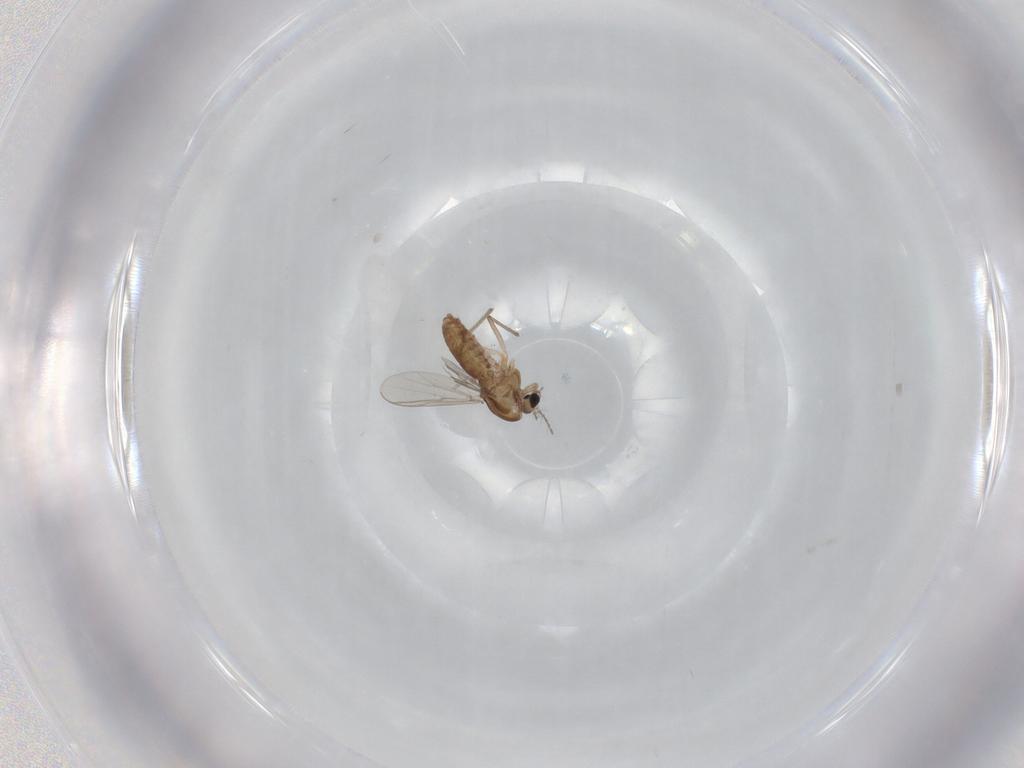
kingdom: Animalia
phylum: Arthropoda
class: Insecta
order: Diptera
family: Chironomidae
